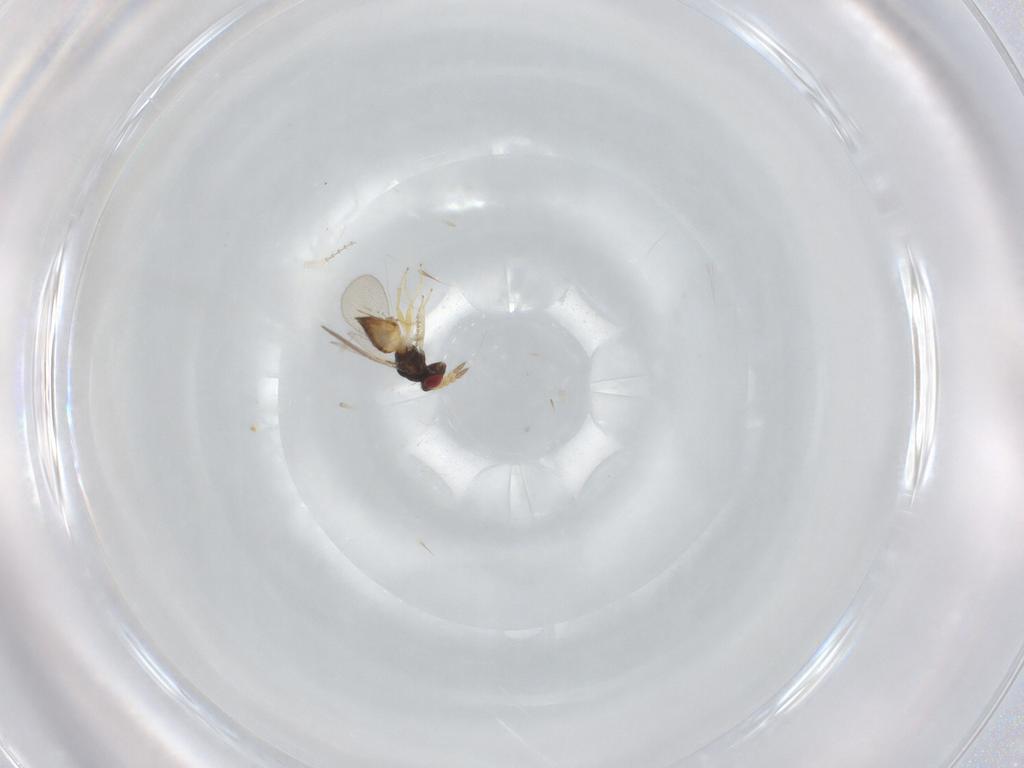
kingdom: Animalia
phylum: Arthropoda
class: Insecta
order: Hymenoptera
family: Eulophidae
